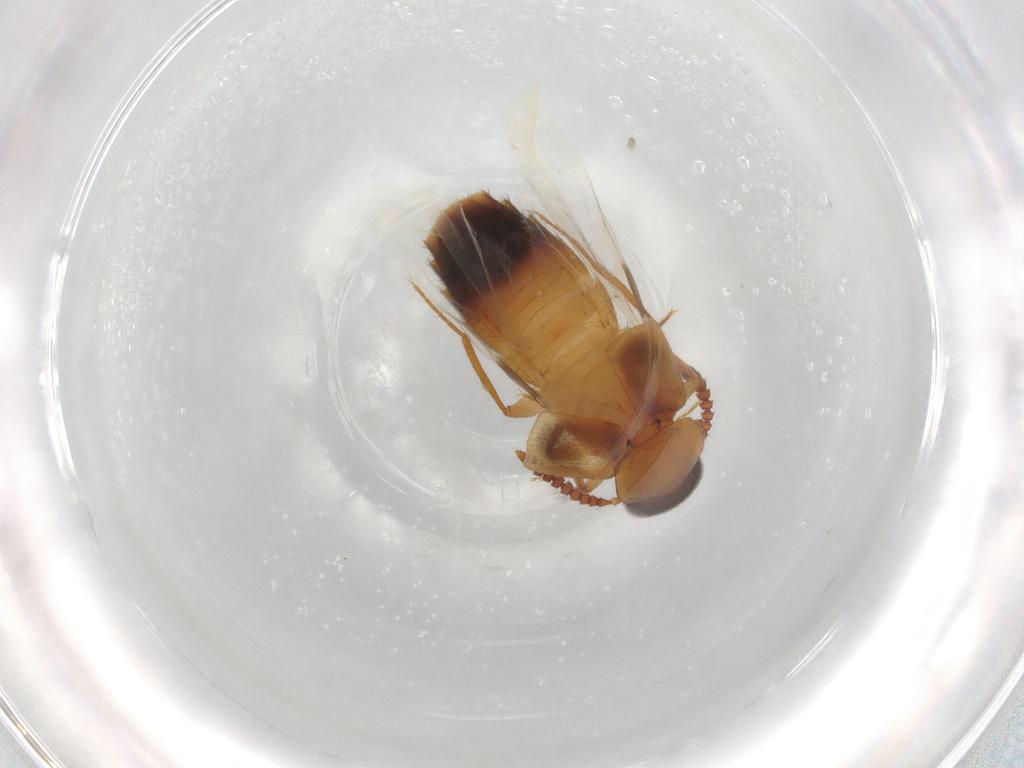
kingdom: Animalia
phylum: Arthropoda
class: Insecta
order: Coleoptera
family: Staphylinidae
